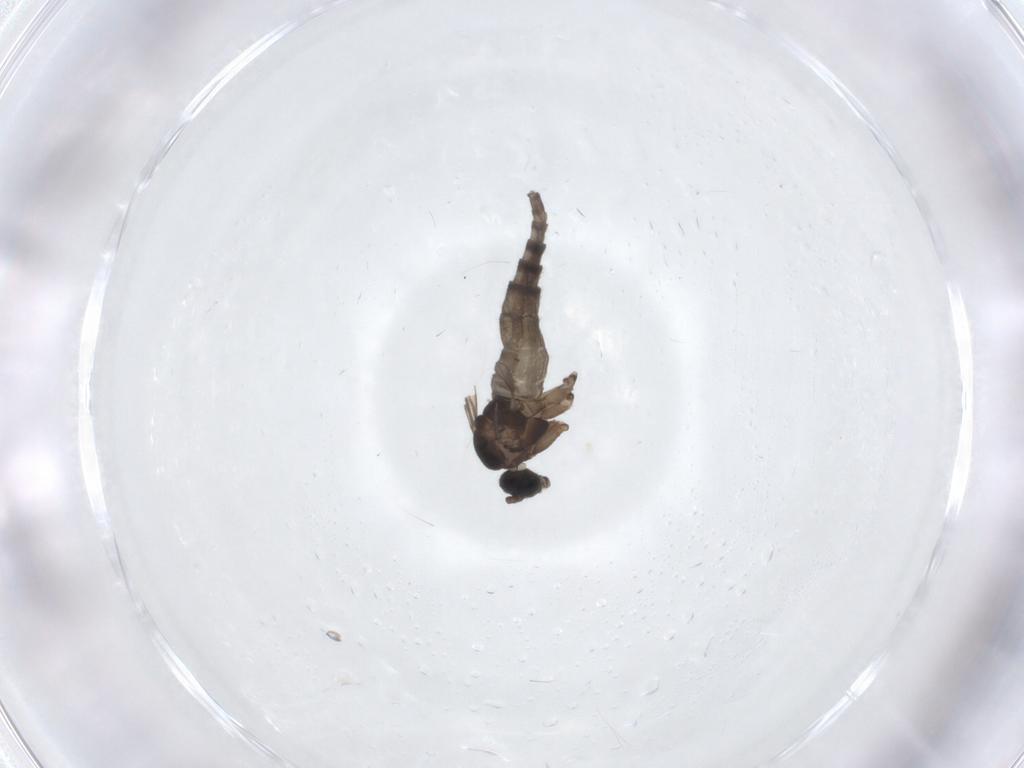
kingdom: Animalia
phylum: Arthropoda
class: Insecta
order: Diptera
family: Sciaridae
